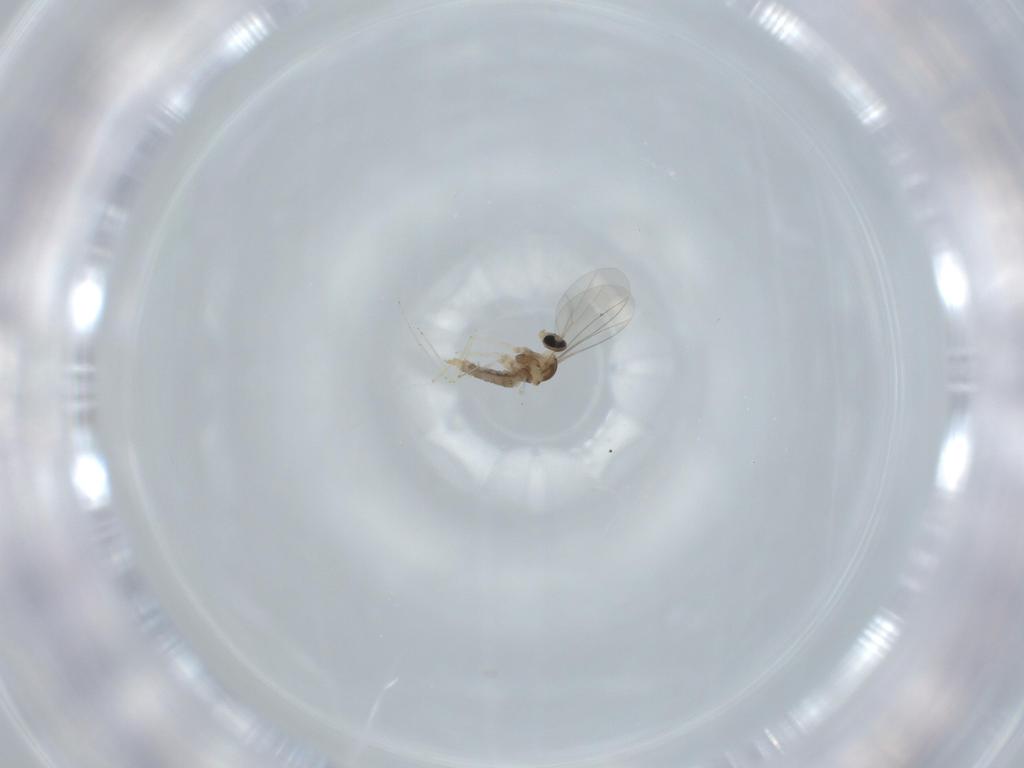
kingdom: Animalia
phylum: Arthropoda
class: Insecta
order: Diptera
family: Cecidomyiidae
